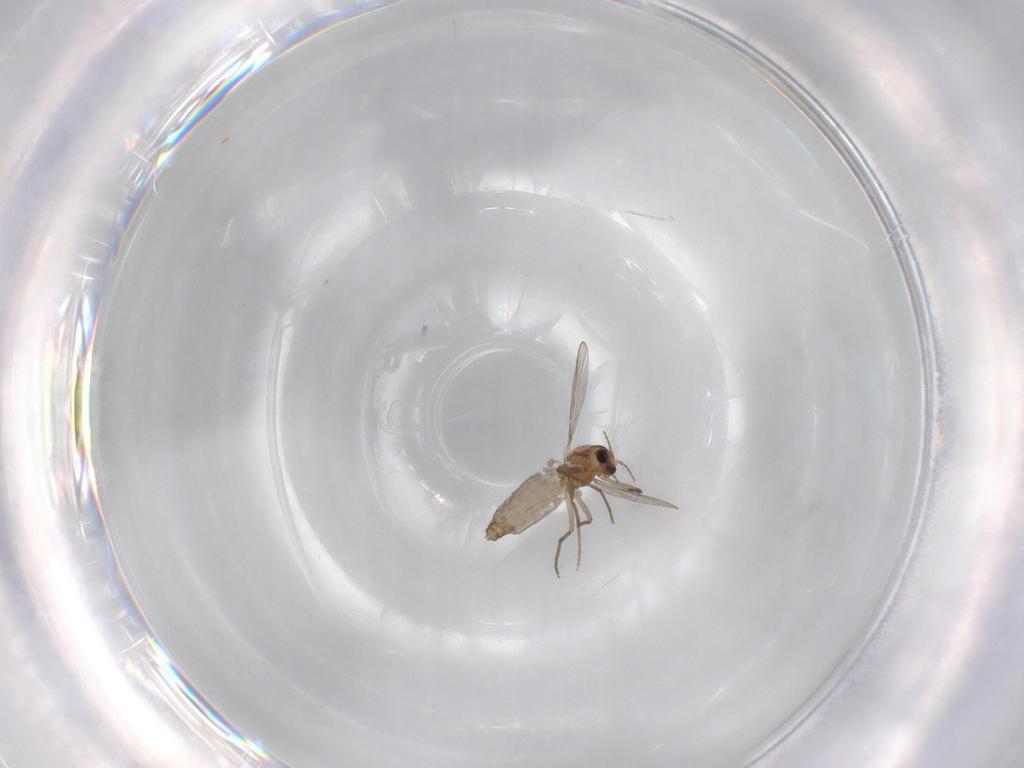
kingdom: Animalia
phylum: Arthropoda
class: Insecta
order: Diptera
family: Chironomidae
